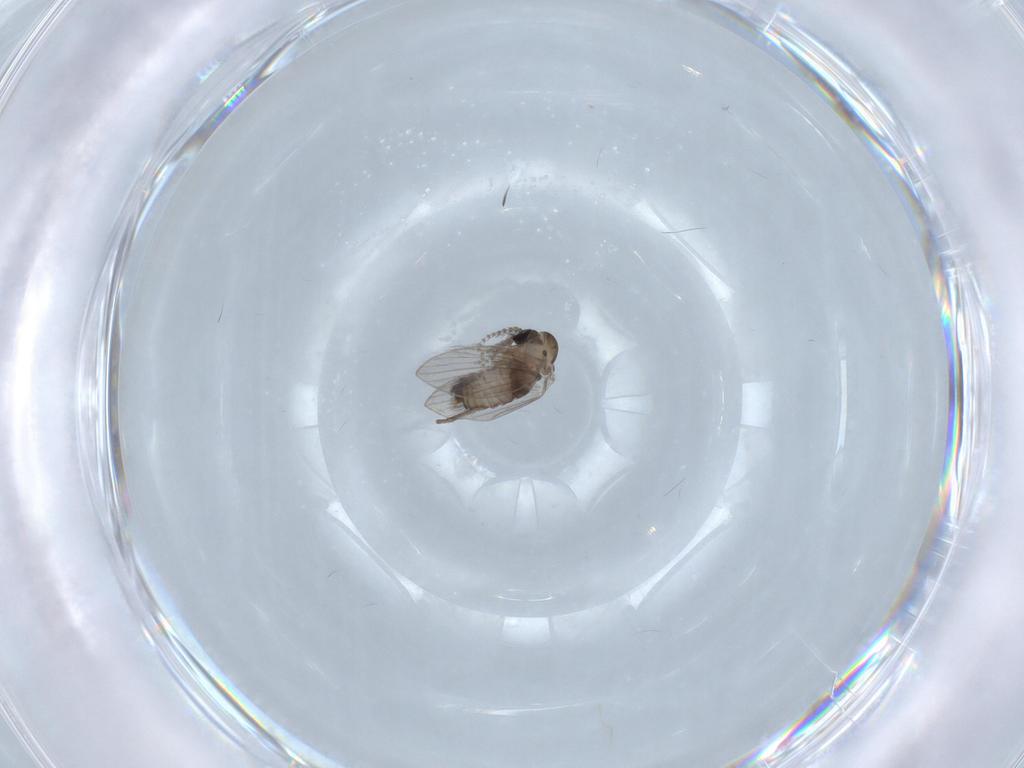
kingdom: Animalia
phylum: Arthropoda
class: Insecta
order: Diptera
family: Psychodidae
